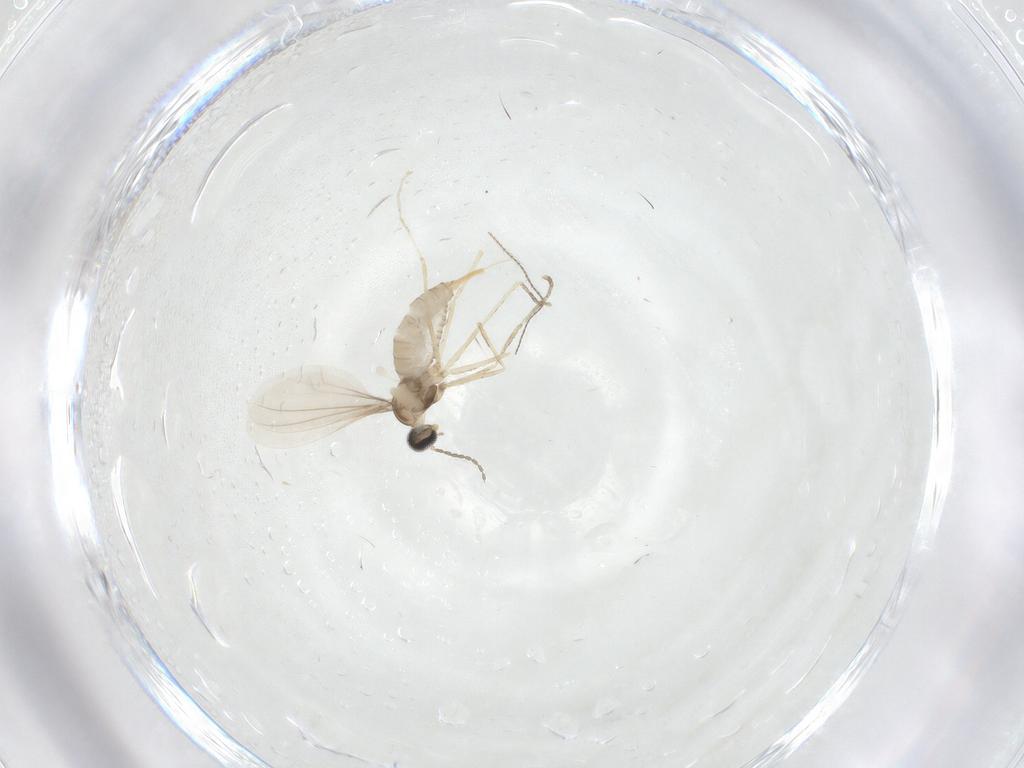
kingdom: Animalia
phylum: Arthropoda
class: Insecta
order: Diptera
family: Cecidomyiidae
